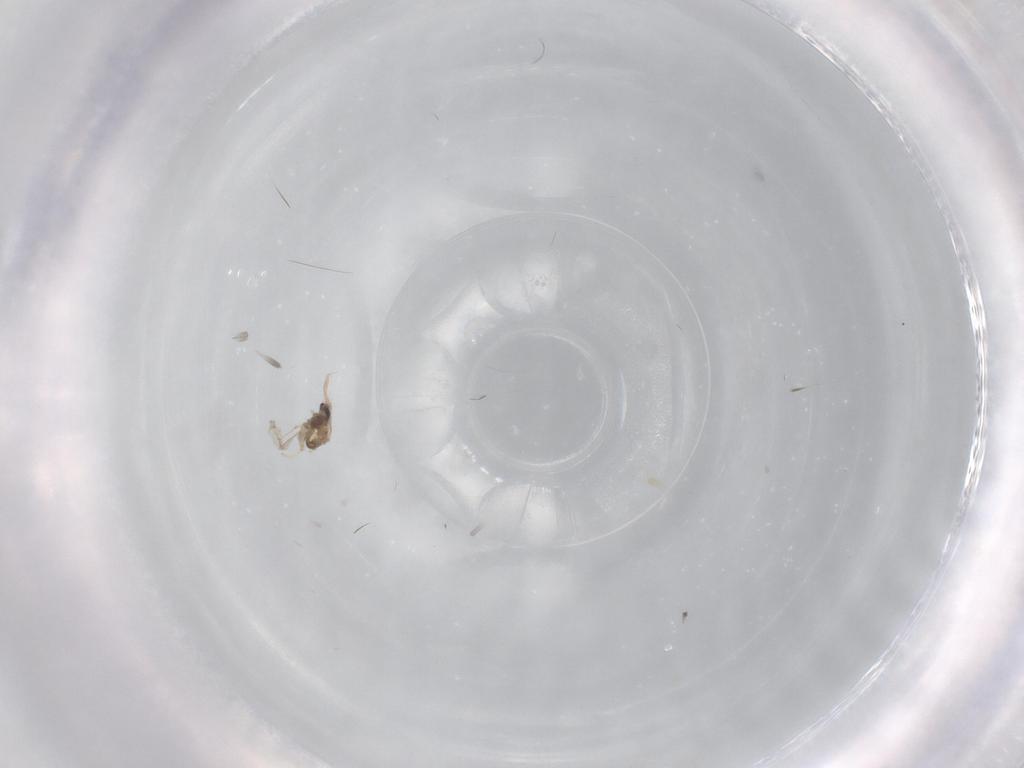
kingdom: Animalia
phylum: Arthropoda
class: Insecta
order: Diptera
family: Chironomidae
